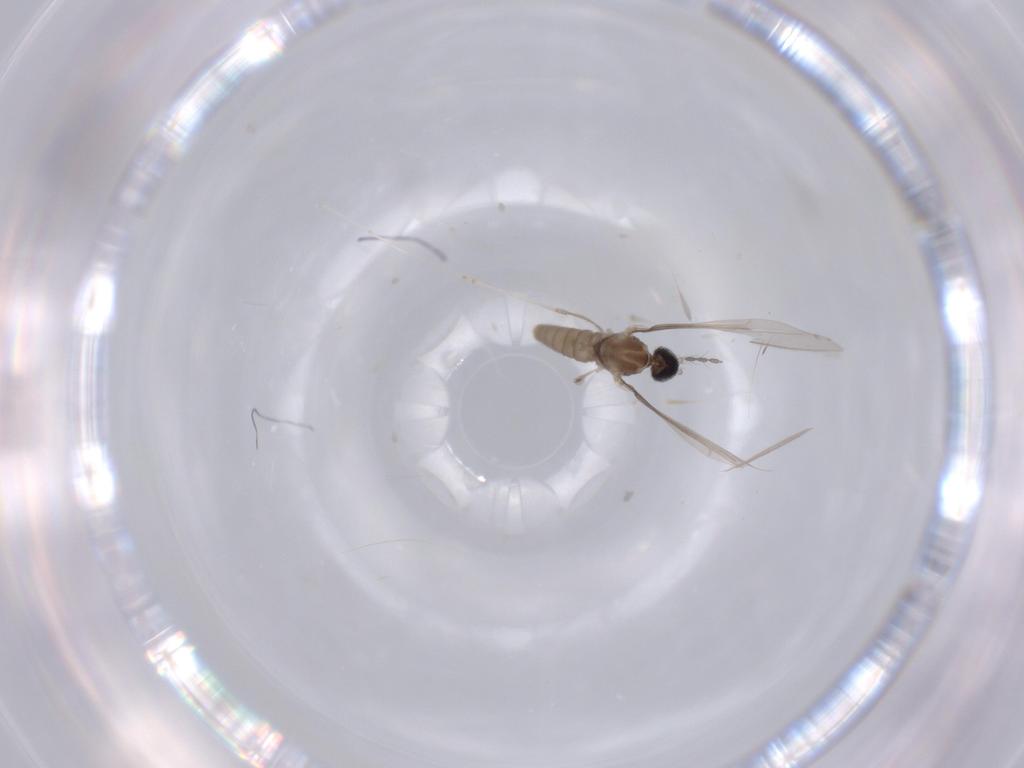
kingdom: Animalia
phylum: Arthropoda
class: Insecta
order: Diptera
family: Cecidomyiidae
